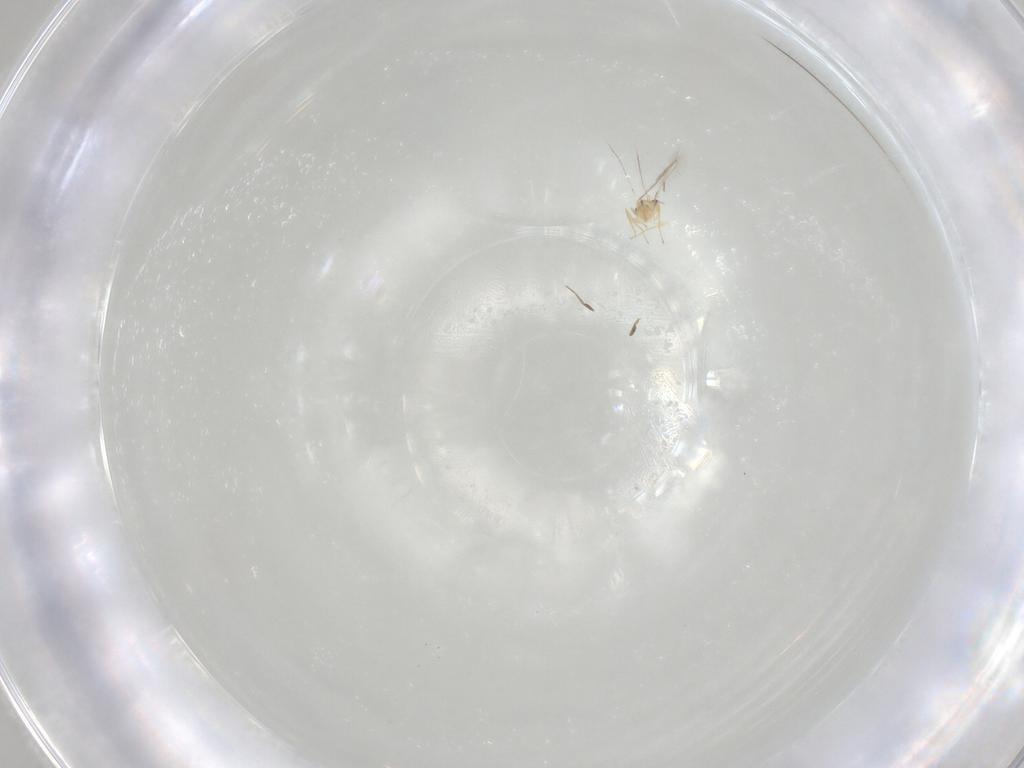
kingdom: Animalia
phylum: Arthropoda
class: Insecta
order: Hymenoptera
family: Mymaridae
